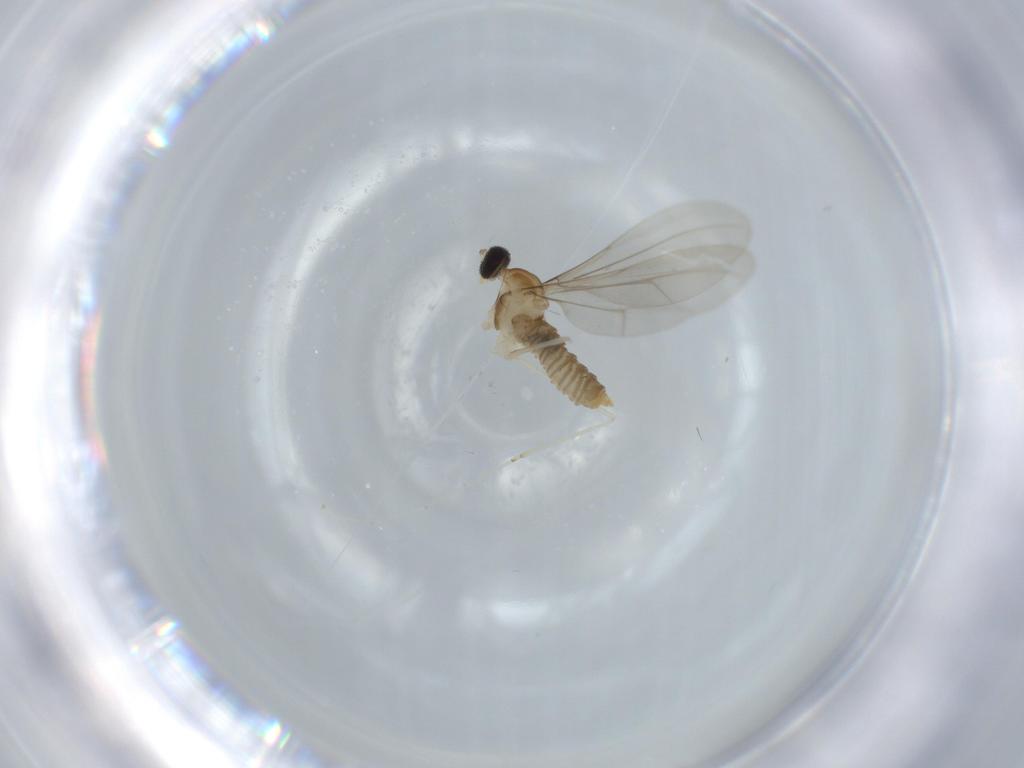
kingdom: Animalia
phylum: Arthropoda
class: Insecta
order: Diptera
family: Cecidomyiidae
